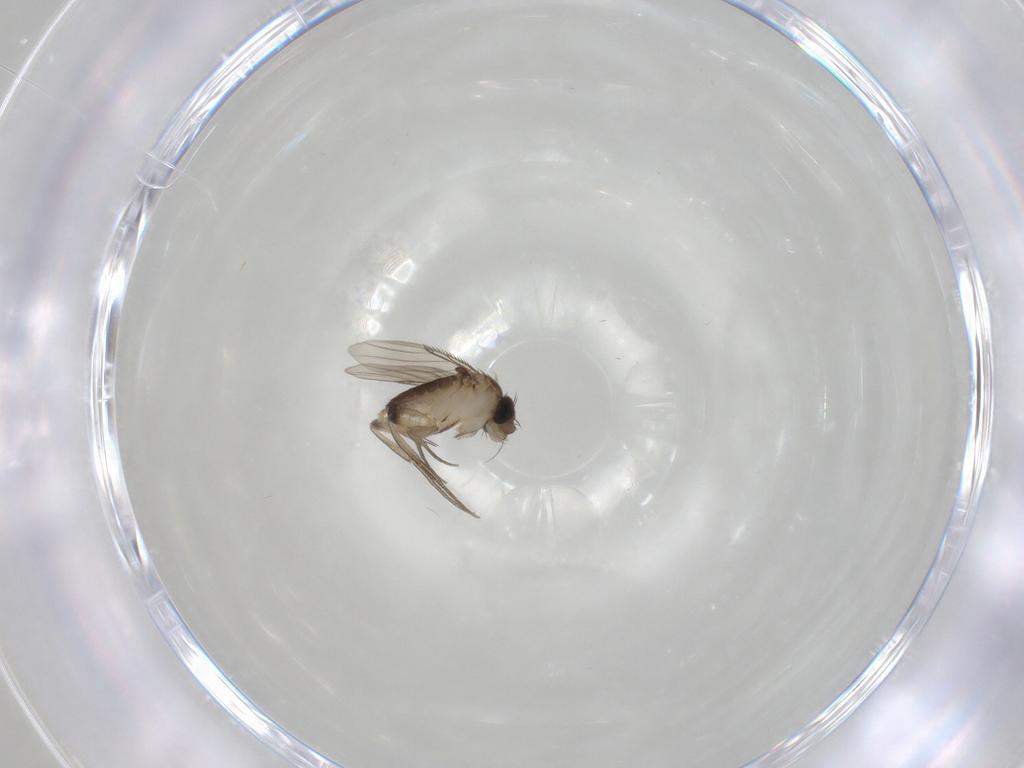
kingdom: Animalia
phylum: Arthropoda
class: Insecta
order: Diptera
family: Phoridae
